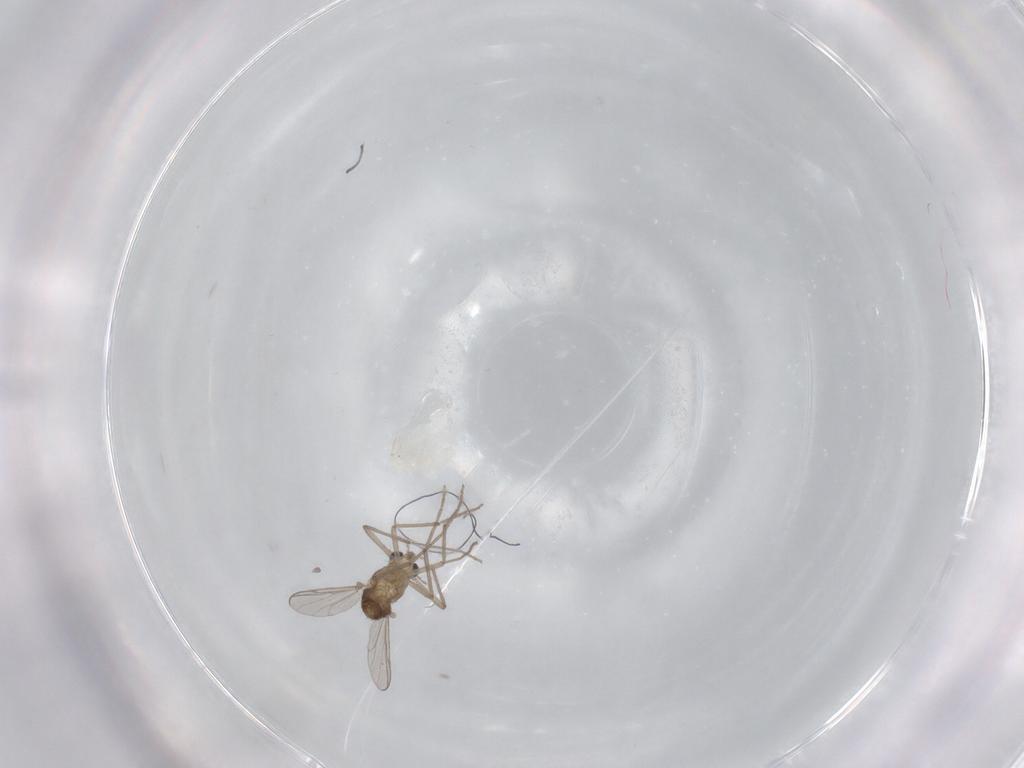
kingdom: Animalia
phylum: Arthropoda
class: Insecta
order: Diptera
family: Chironomidae
